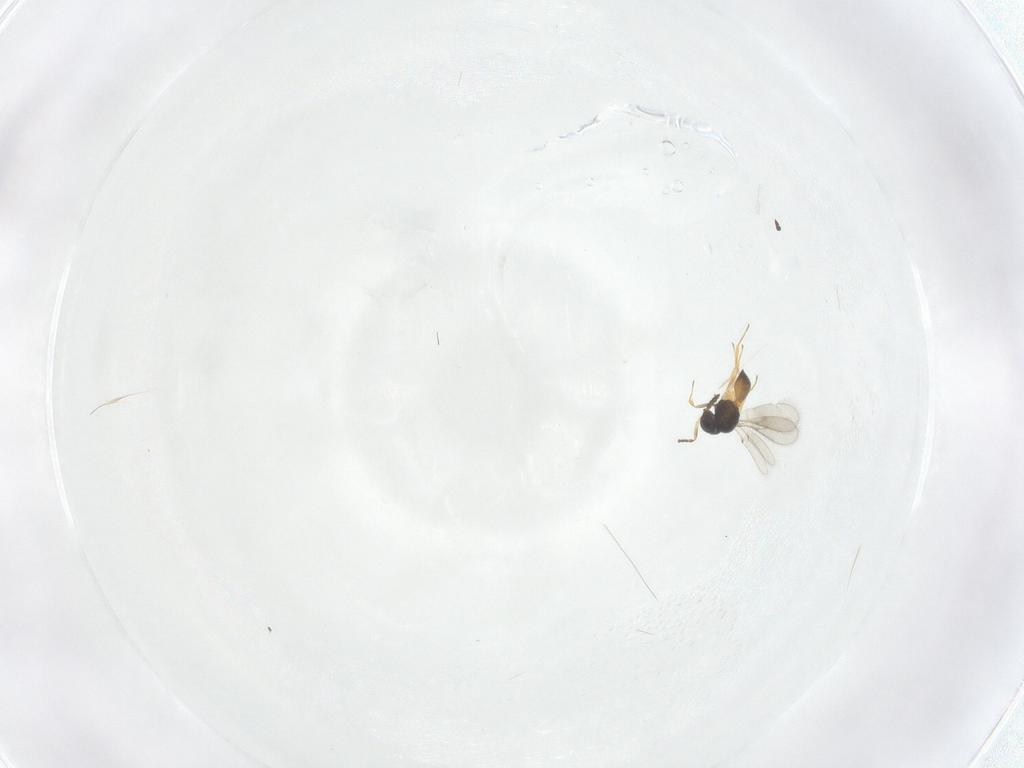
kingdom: Animalia
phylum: Arthropoda
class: Insecta
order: Hymenoptera
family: Scelionidae
